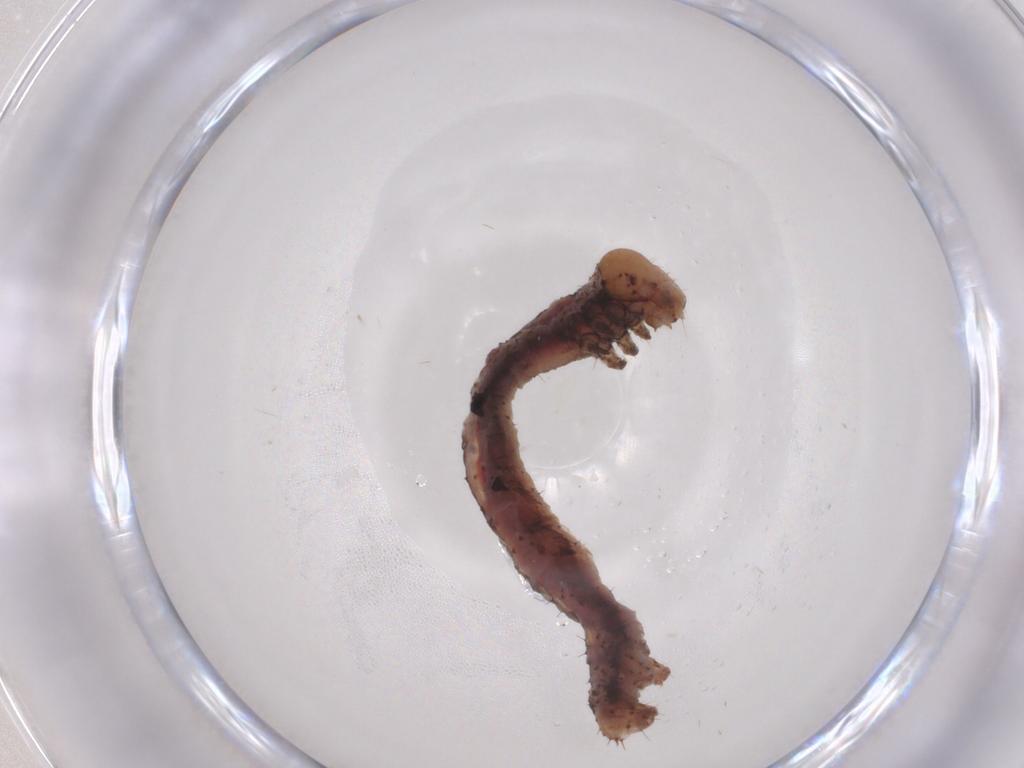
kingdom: Animalia
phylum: Arthropoda
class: Insecta
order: Lepidoptera
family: Geometridae
